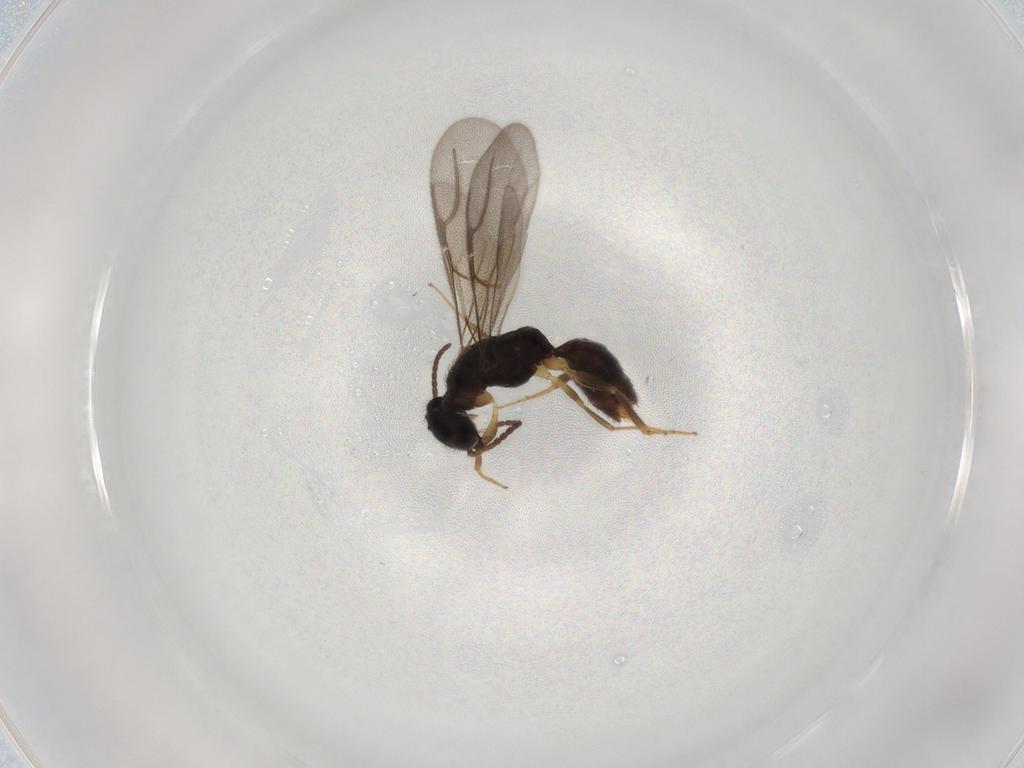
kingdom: Animalia
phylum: Arthropoda
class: Insecta
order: Hymenoptera
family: Bethylidae
